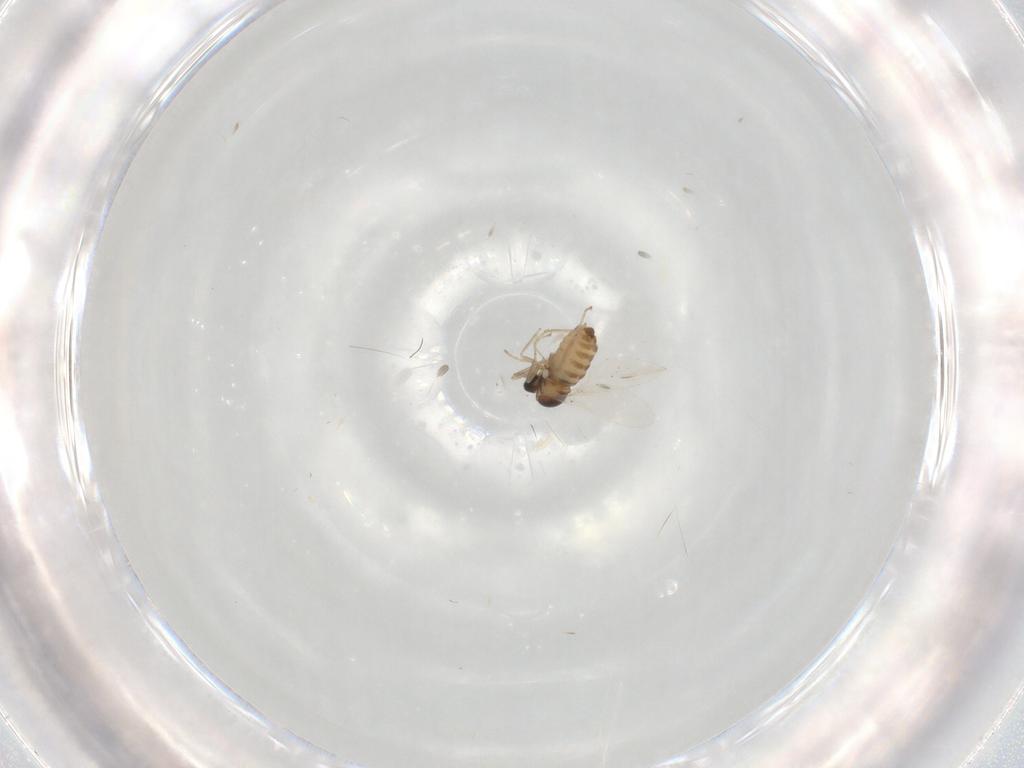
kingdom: Animalia
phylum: Arthropoda
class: Insecta
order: Diptera
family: Cecidomyiidae
